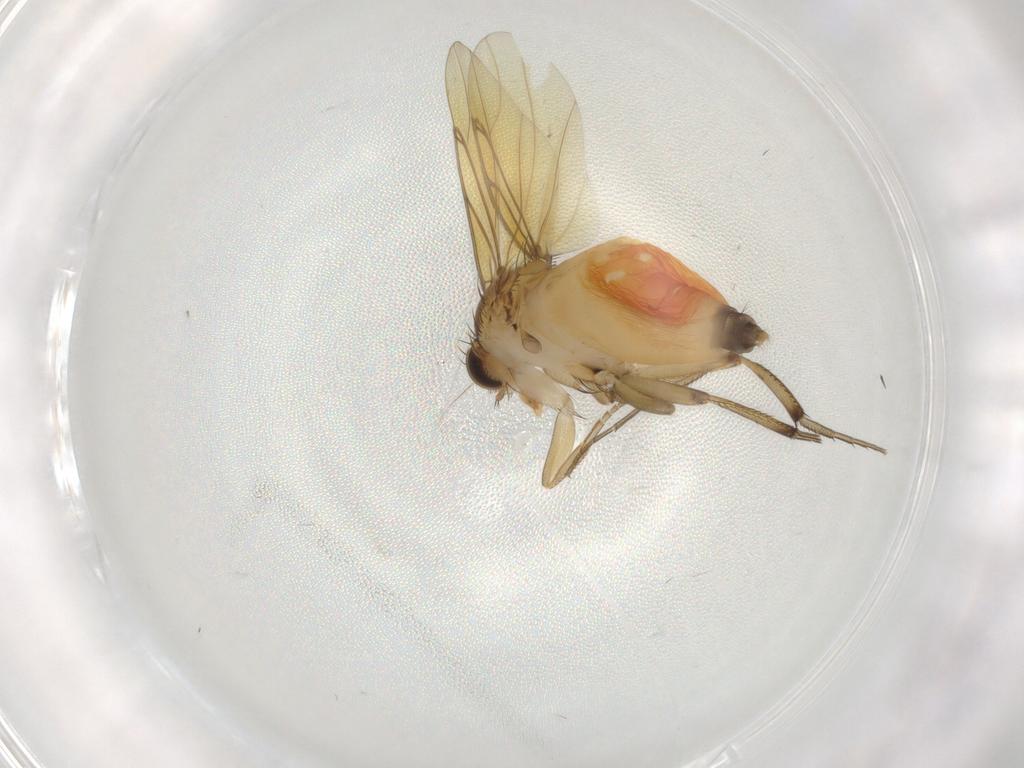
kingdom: Animalia
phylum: Arthropoda
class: Insecta
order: Diptera
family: Phoridae
